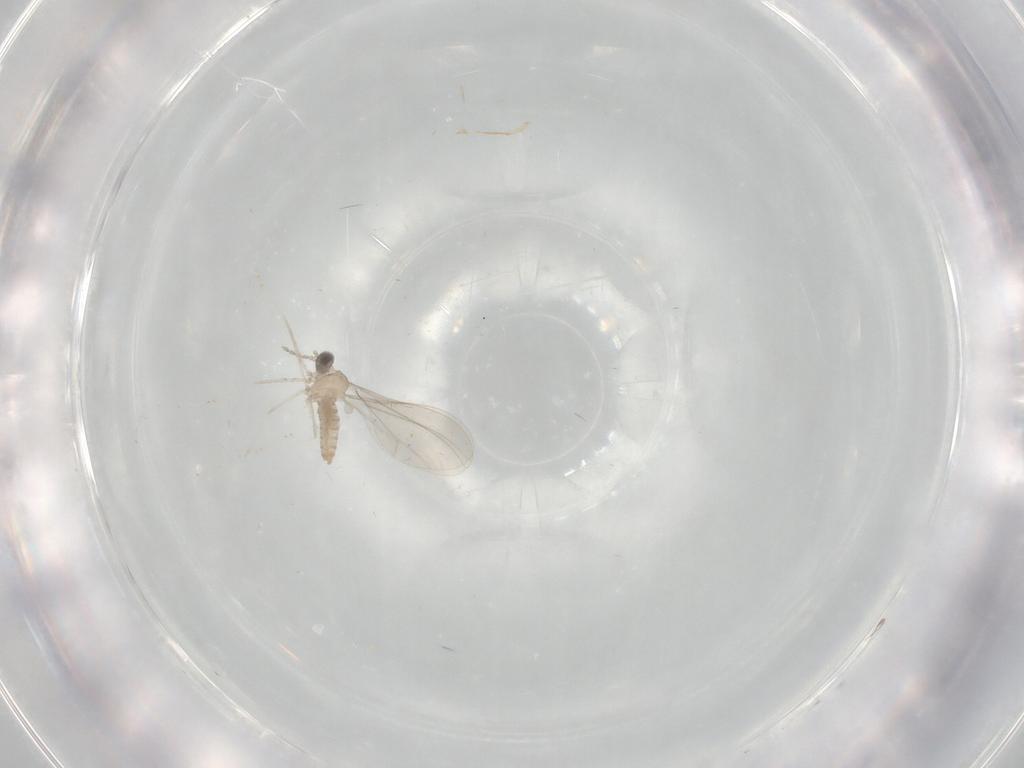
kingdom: Animalia
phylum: Arthropoda
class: Insecta
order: Diptera
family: Cecidomyiidae
